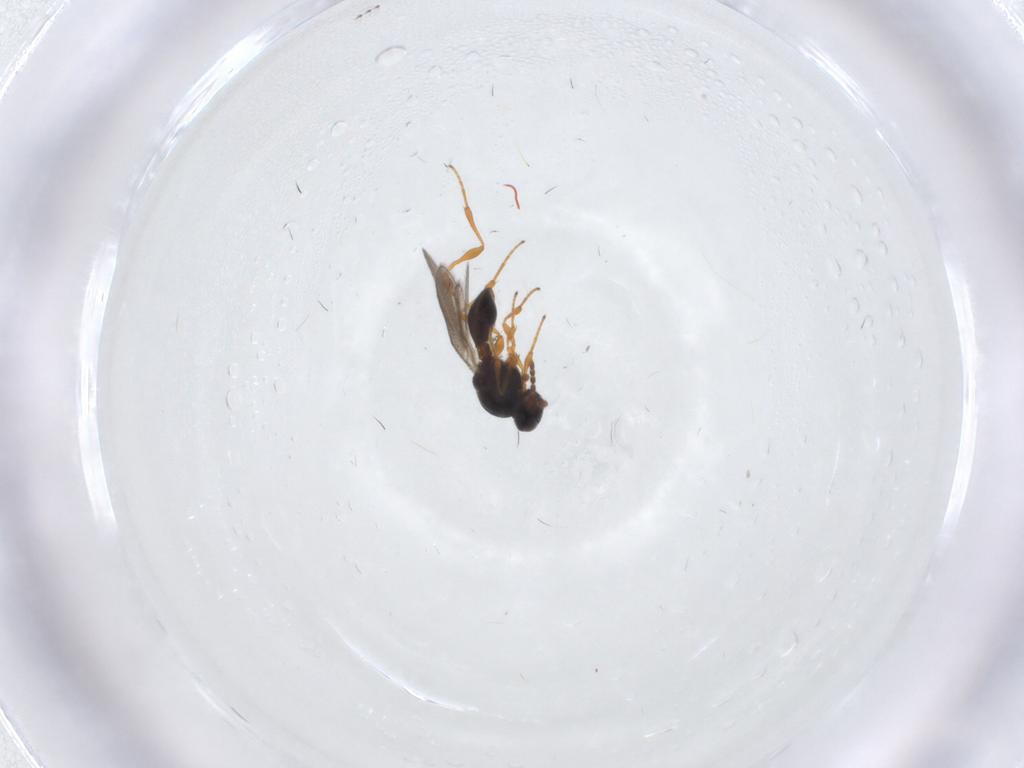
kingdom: Animalia
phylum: Arthropoda
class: Insecta
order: Hymenoptera
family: Platygastridae
